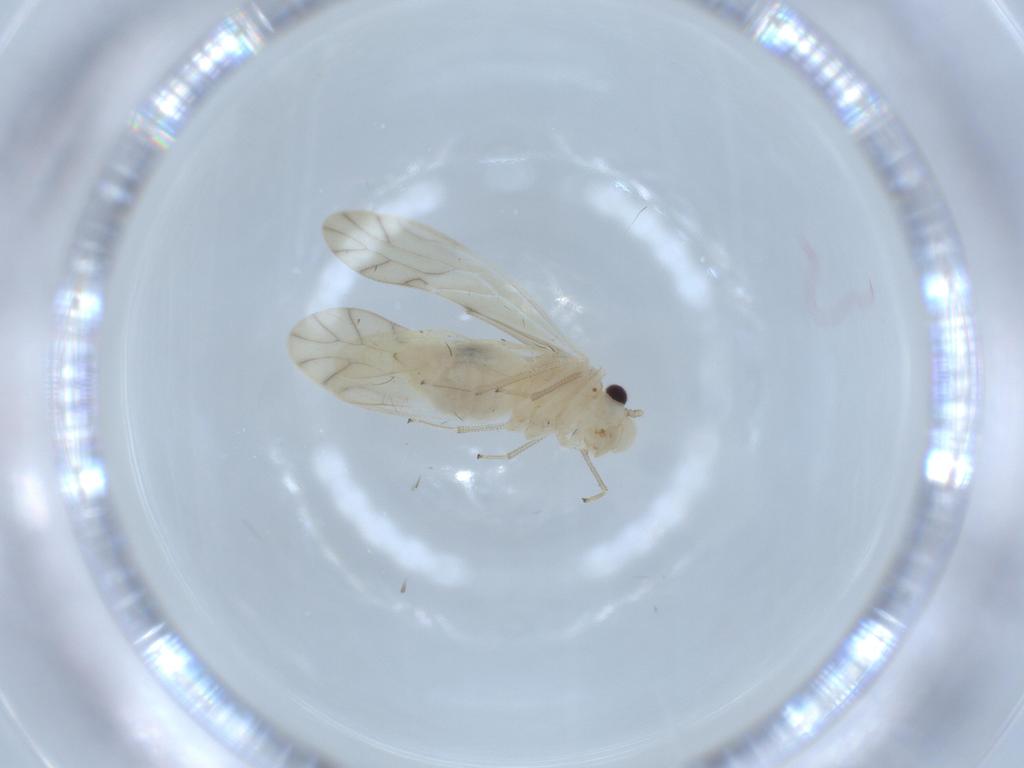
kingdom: Animalia
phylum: Arthropoda
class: Insecta
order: Psocodea
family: Caeciliusidae
